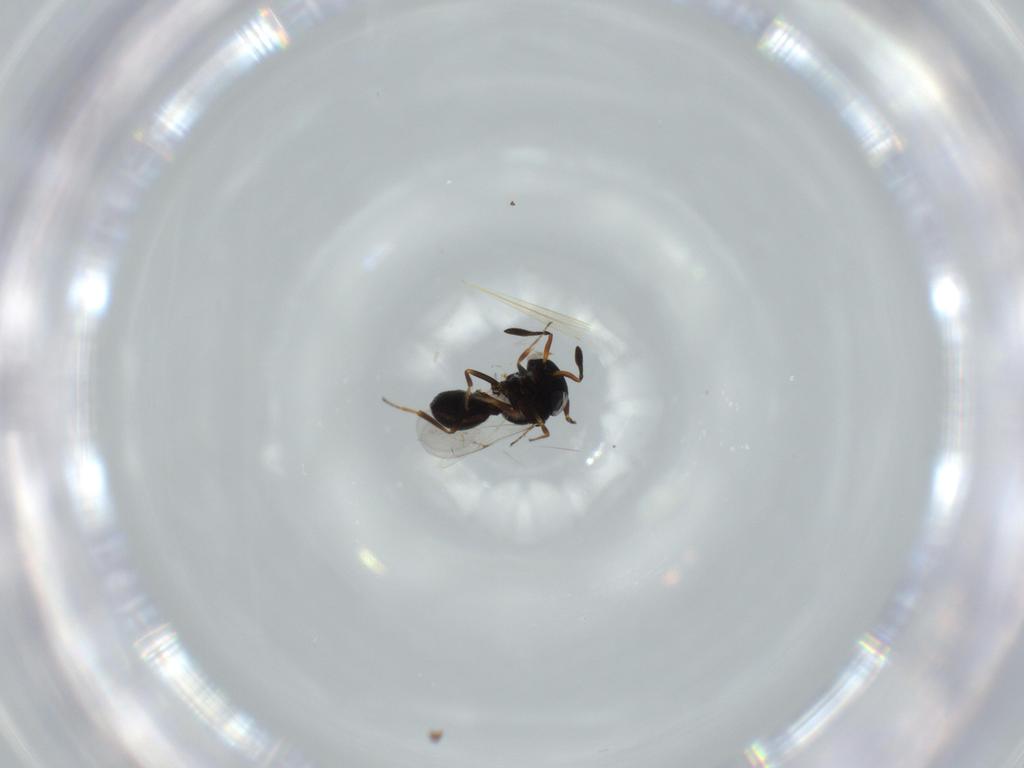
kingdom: Animalia
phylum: Arthropoda
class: Insecta
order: Hymenoptera
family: Scelionidae
